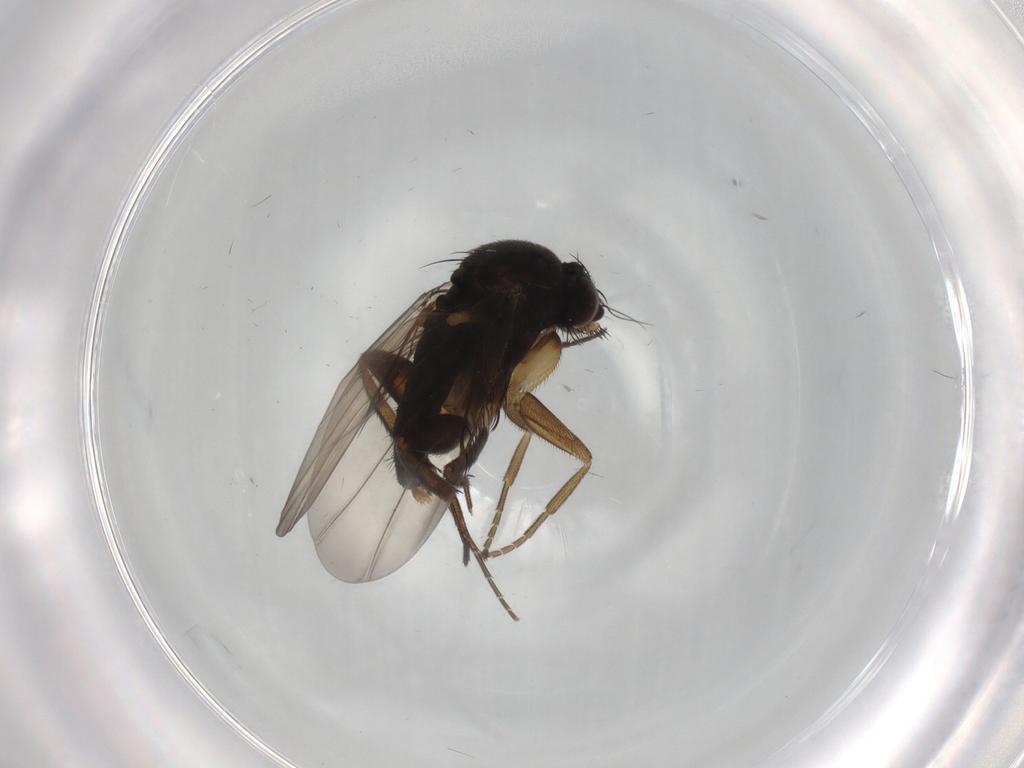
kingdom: Animalia
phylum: Arthropoda
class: Insecta
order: Diptera
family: Phoridae
